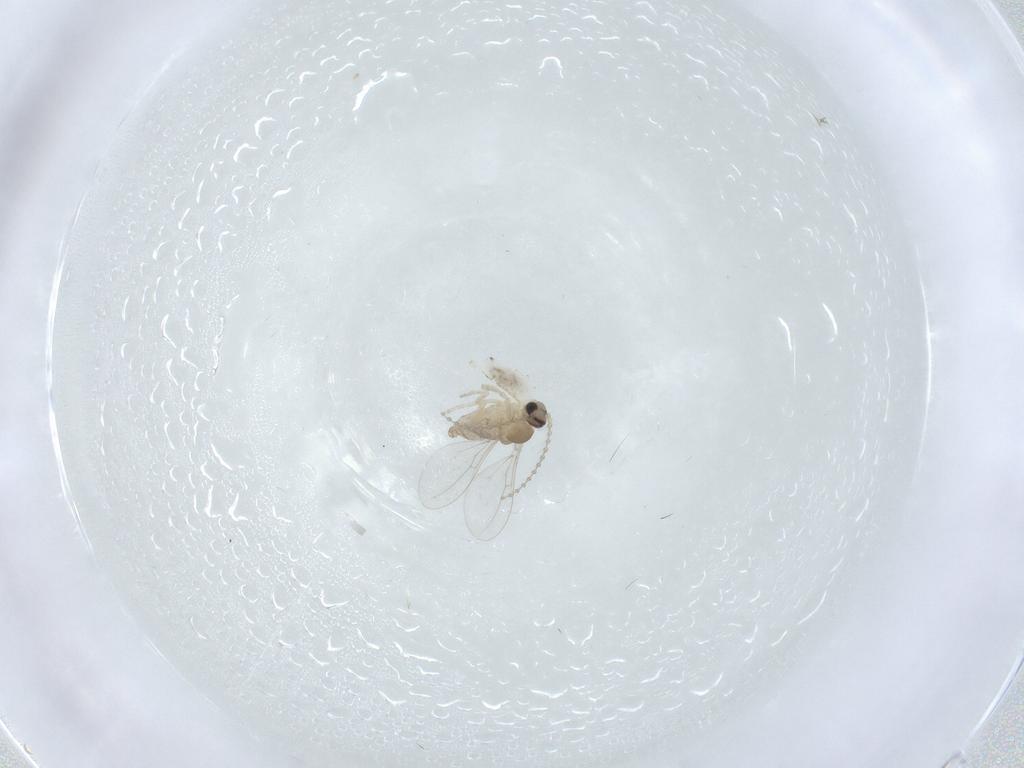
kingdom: Animalia
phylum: Arthropoda
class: Insecta
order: Diptera
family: Cecidomyiidae
